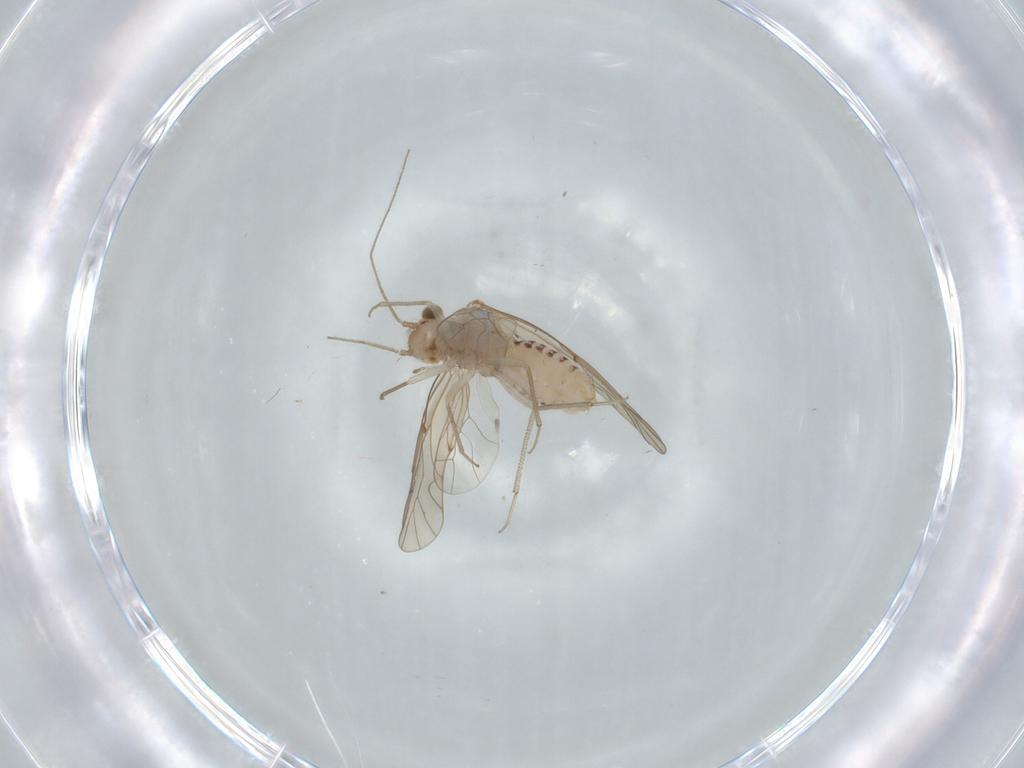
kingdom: Animalia
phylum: Arthropoda
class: Insecta
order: Psocodea
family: Lachesillidae
